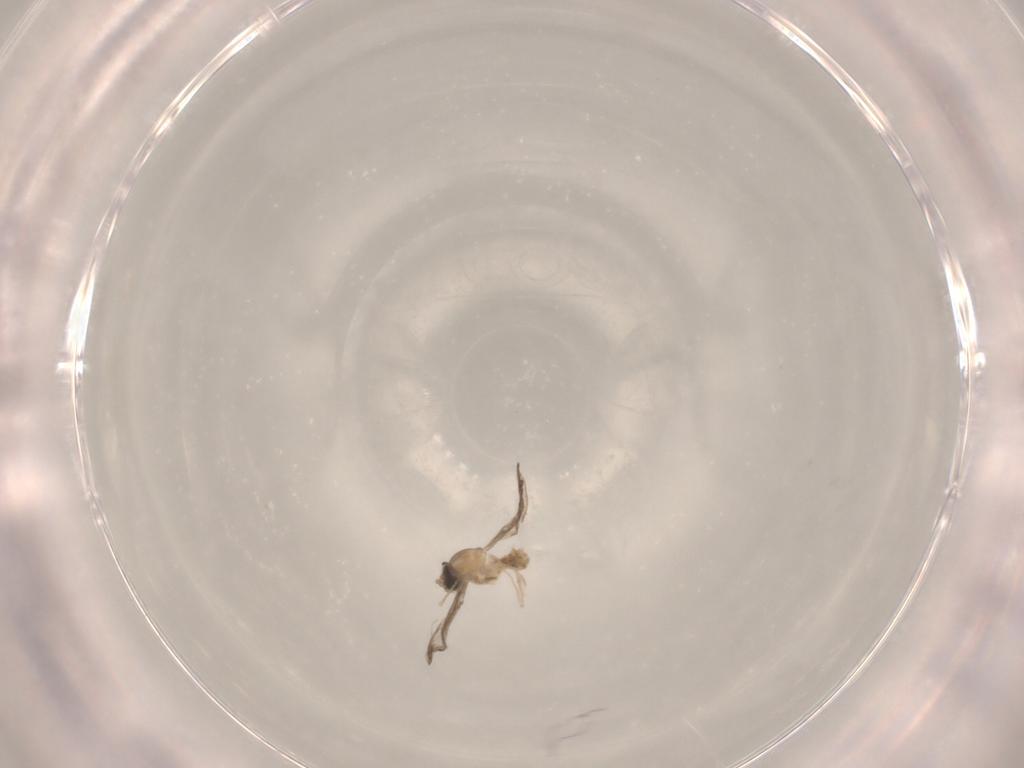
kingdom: Animalia
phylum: Arthropoda
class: Insecta
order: Diptera
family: Cecidomyiidae
